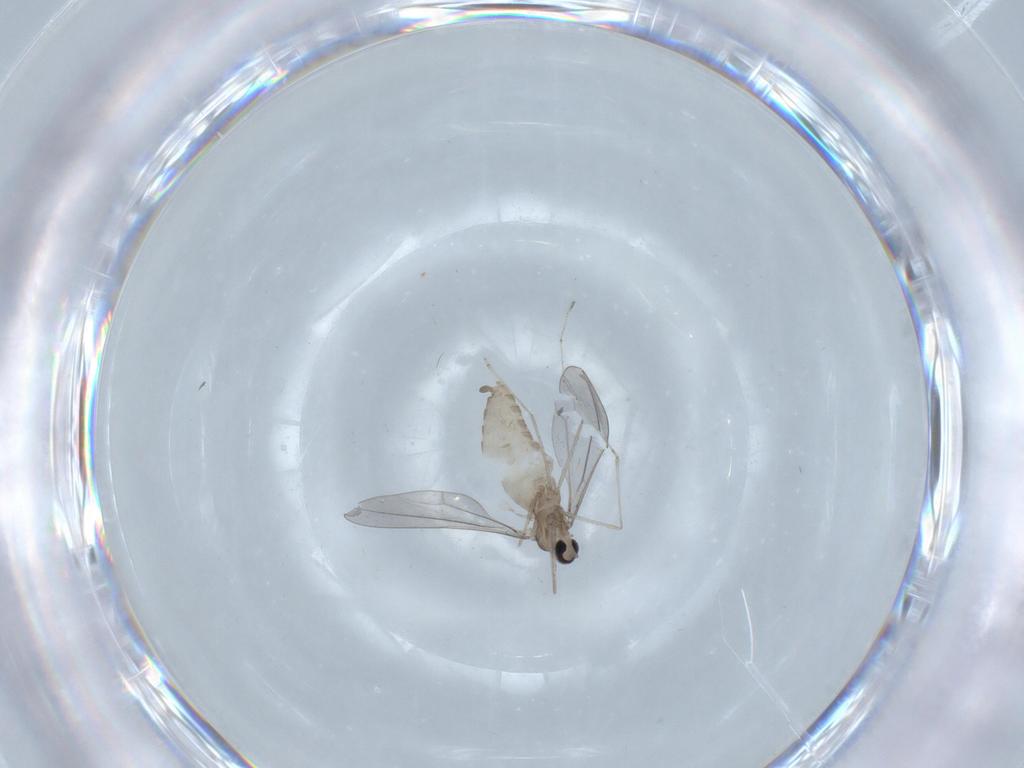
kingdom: Animalia
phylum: Arthropoda
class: Insecta
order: Diptera
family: Cecidomyiidae
